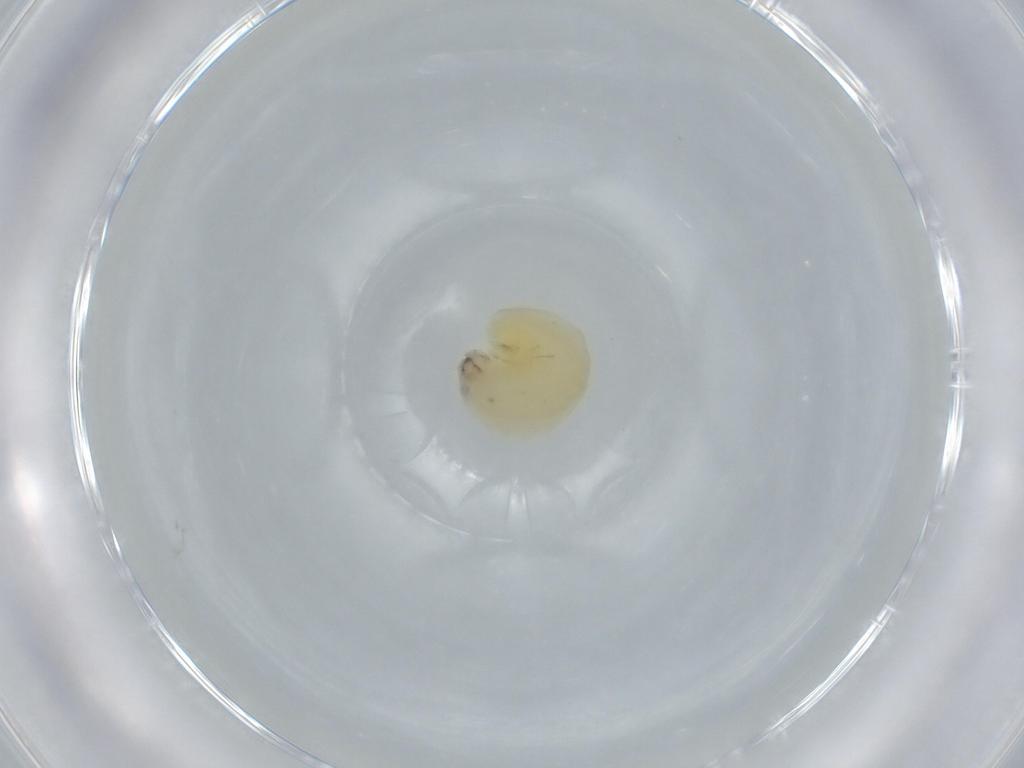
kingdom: Animalia
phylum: Arthropoda
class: Insecta
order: Hymenoptera
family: Dryinidae
